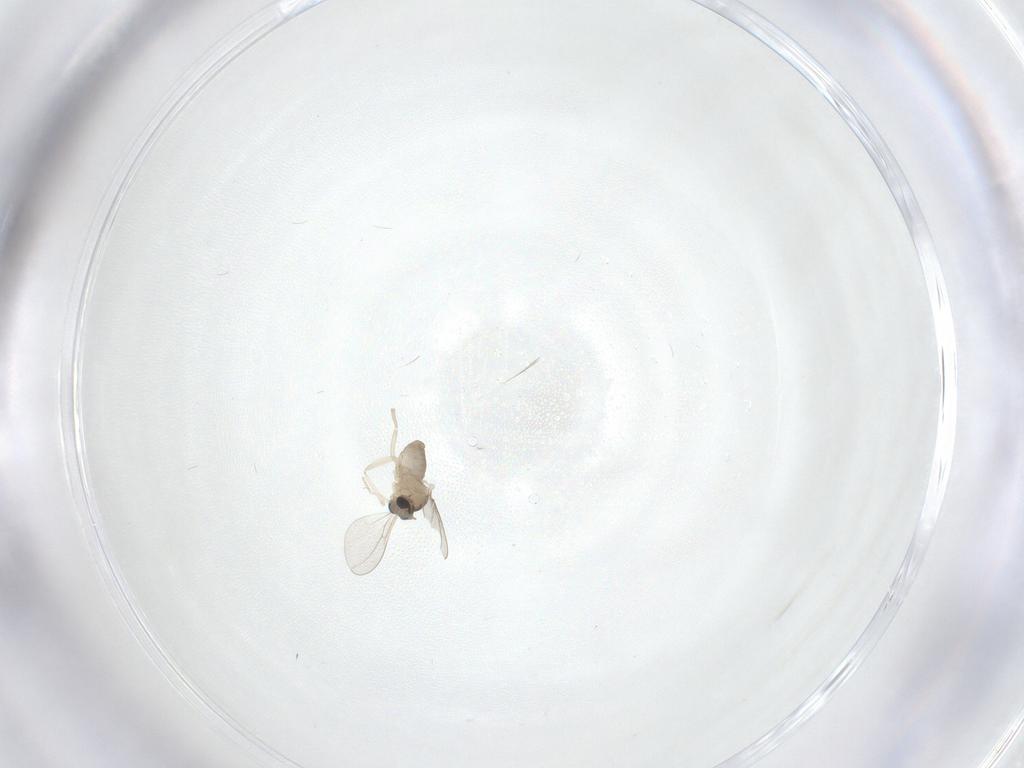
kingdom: Animalia
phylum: Arthropoda
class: Insecta
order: Diptera
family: Cecidomyiidae
